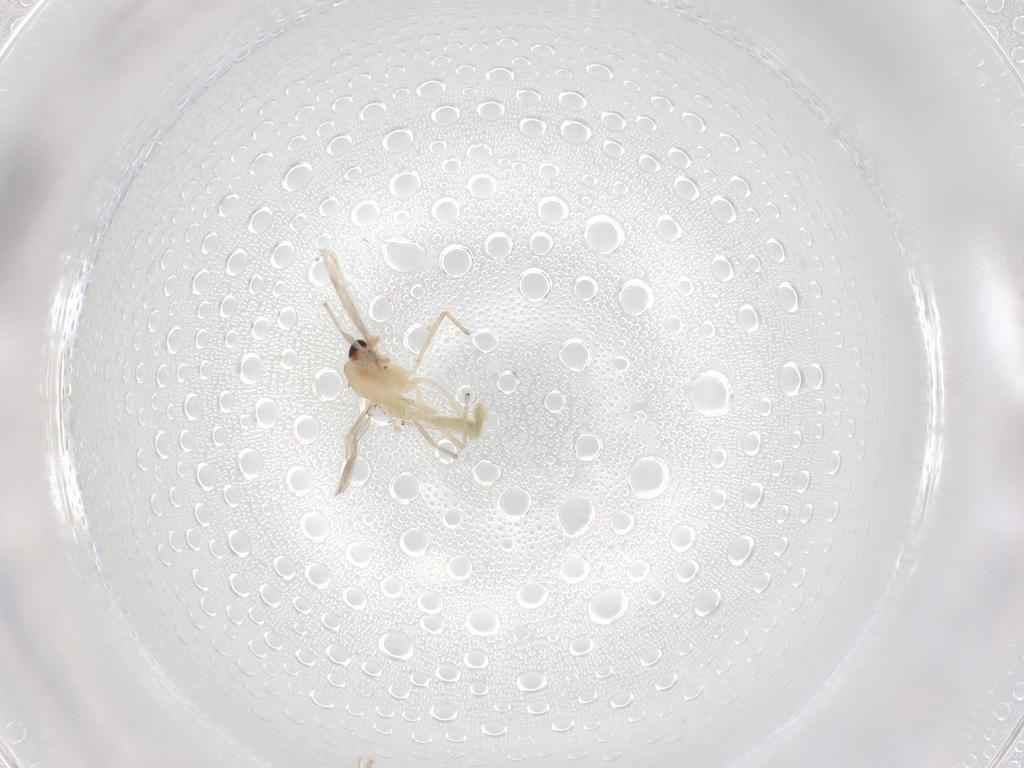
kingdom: Animalia
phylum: Arthropoda
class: Insecta
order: Diptera
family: Chironomidae
